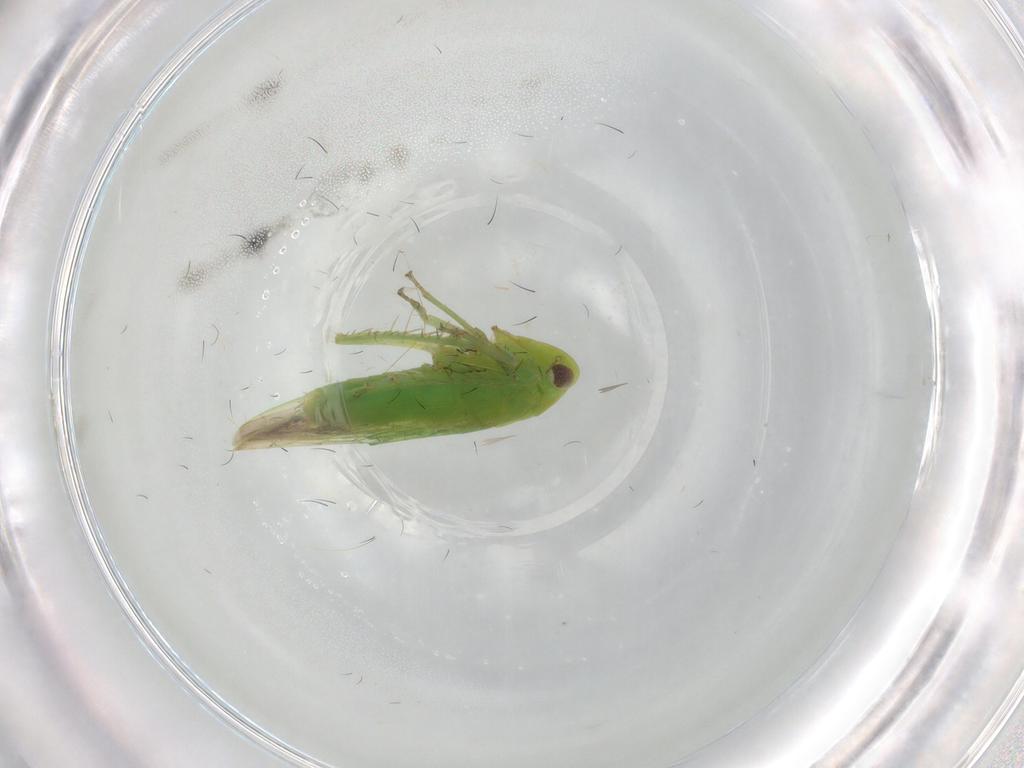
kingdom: Animalia
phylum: Arthropoda
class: Insecta
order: Hemiptera
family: Cicadellidae
